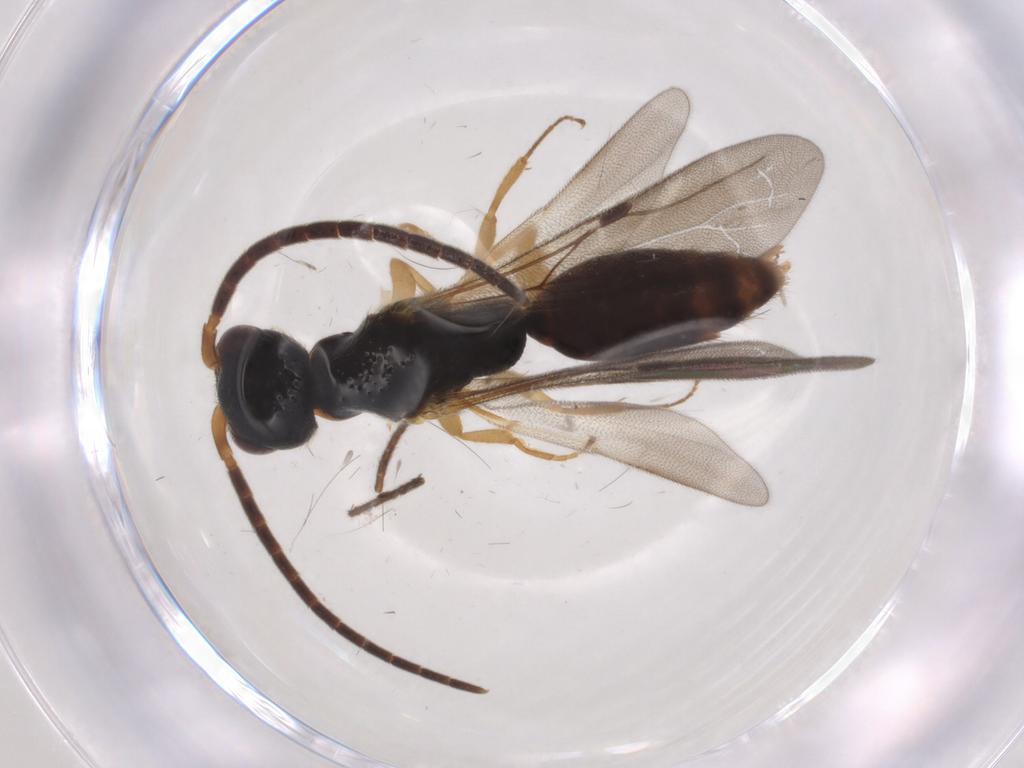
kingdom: Animalia
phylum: Arthropoda
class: Insecta
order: Hymenoptera
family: Bethylidae
